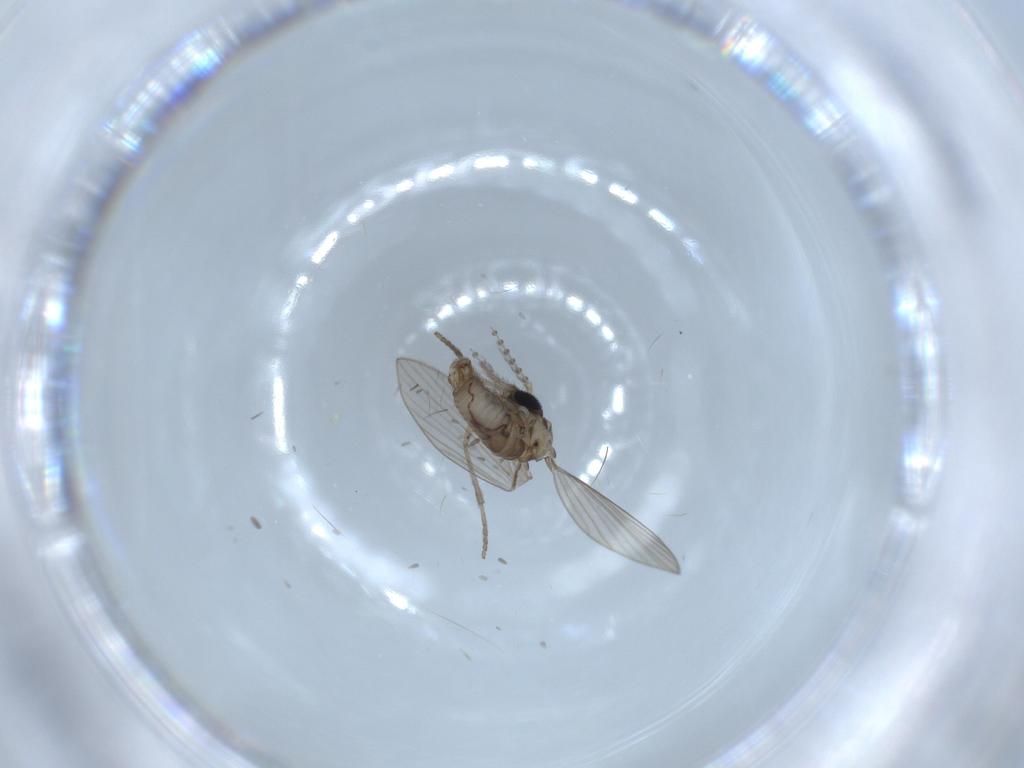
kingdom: Animalia
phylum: Arthropoda
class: Insecta
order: Diptera
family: Psychodidae
